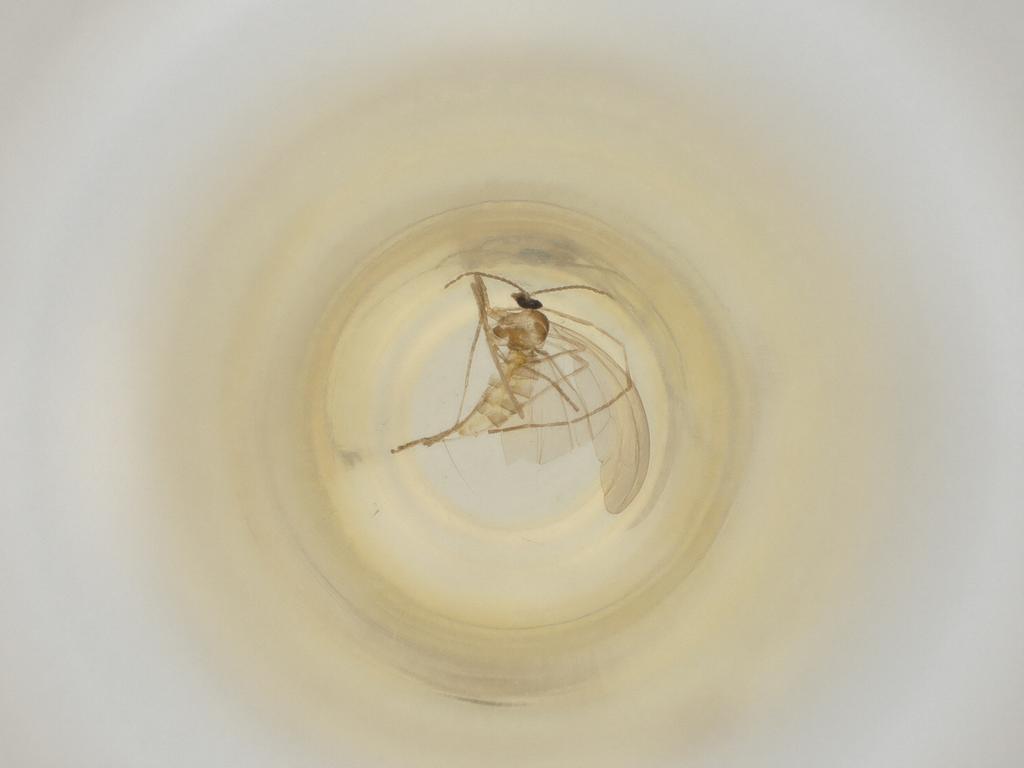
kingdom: Animalia
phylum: Arthropoda
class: Insecta
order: Diptera
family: Cecidomyiidae
